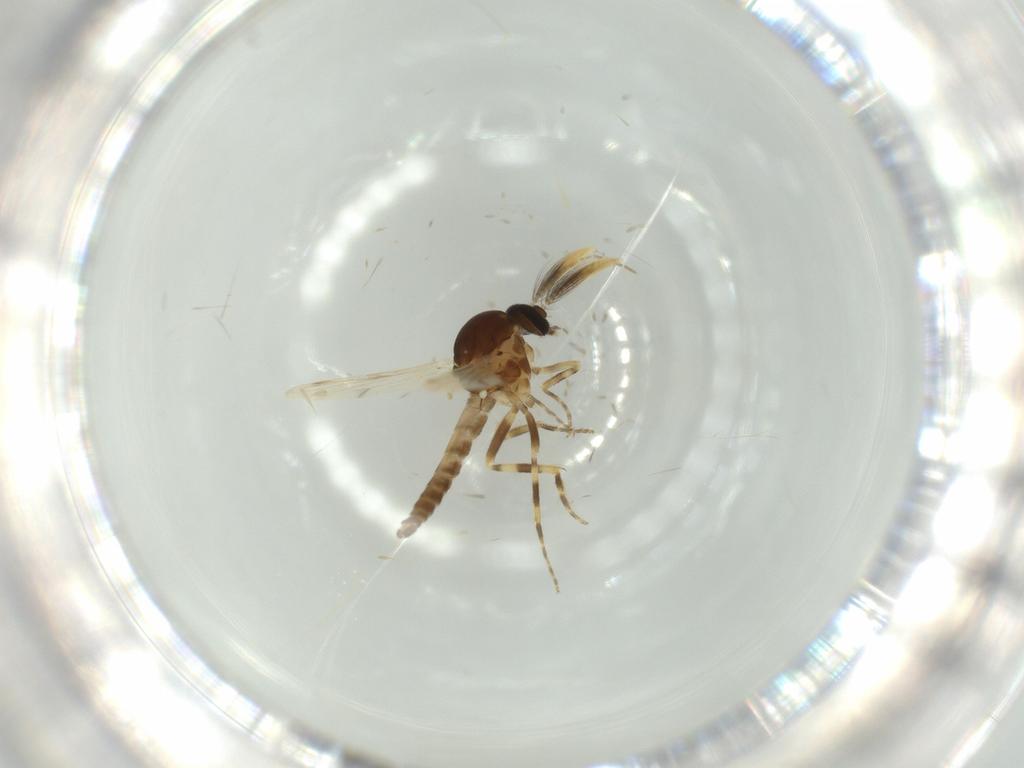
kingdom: Animalia
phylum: Arthropoda
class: Insecta
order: Diptera
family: Ceratopogonidae
